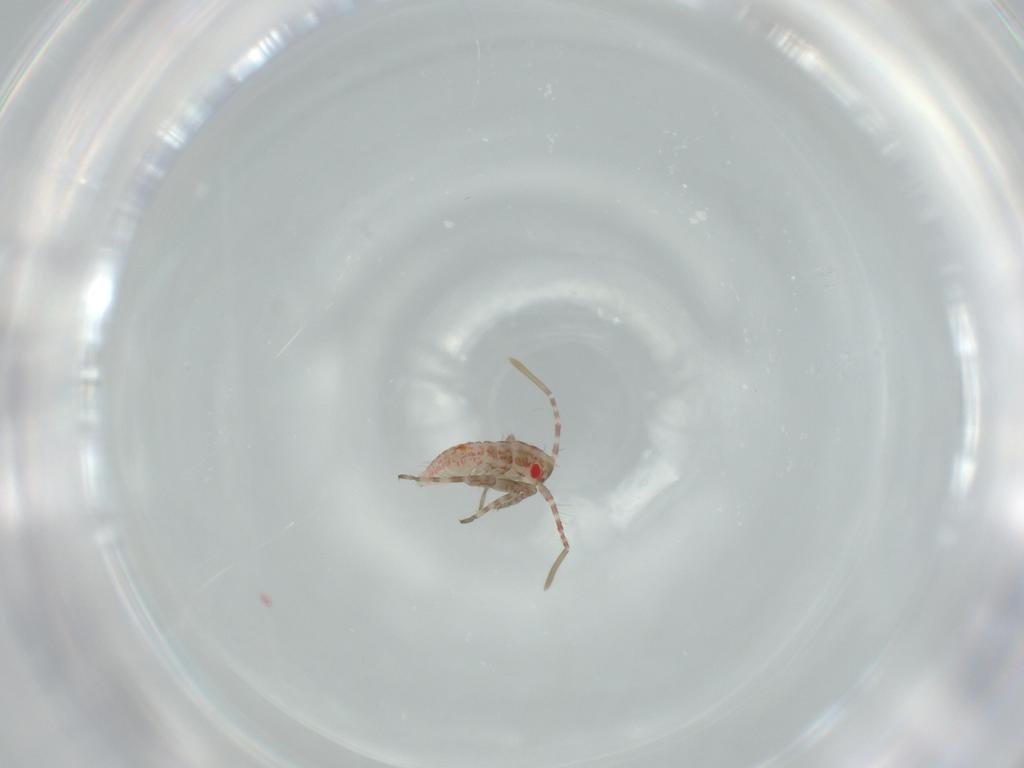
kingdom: Animalia
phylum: Arthropoda
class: Insecta
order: Hemiptera
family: Miridae
